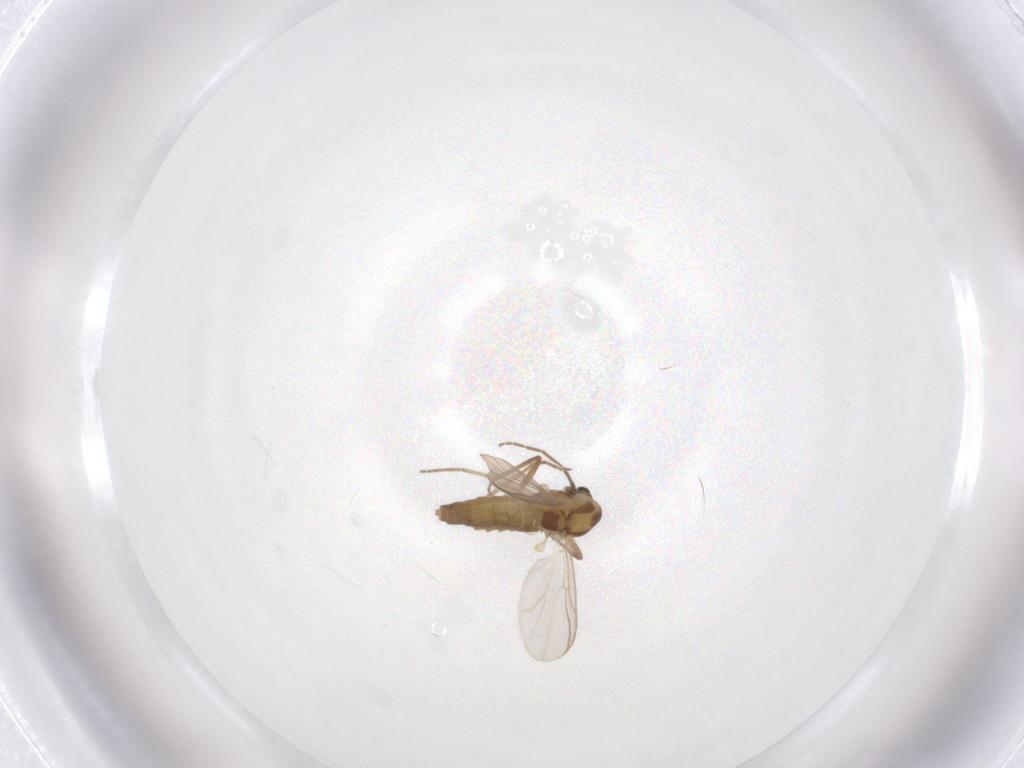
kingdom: Animalia
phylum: Arthropoda
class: Insecta
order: Diptera
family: Chironomidae
